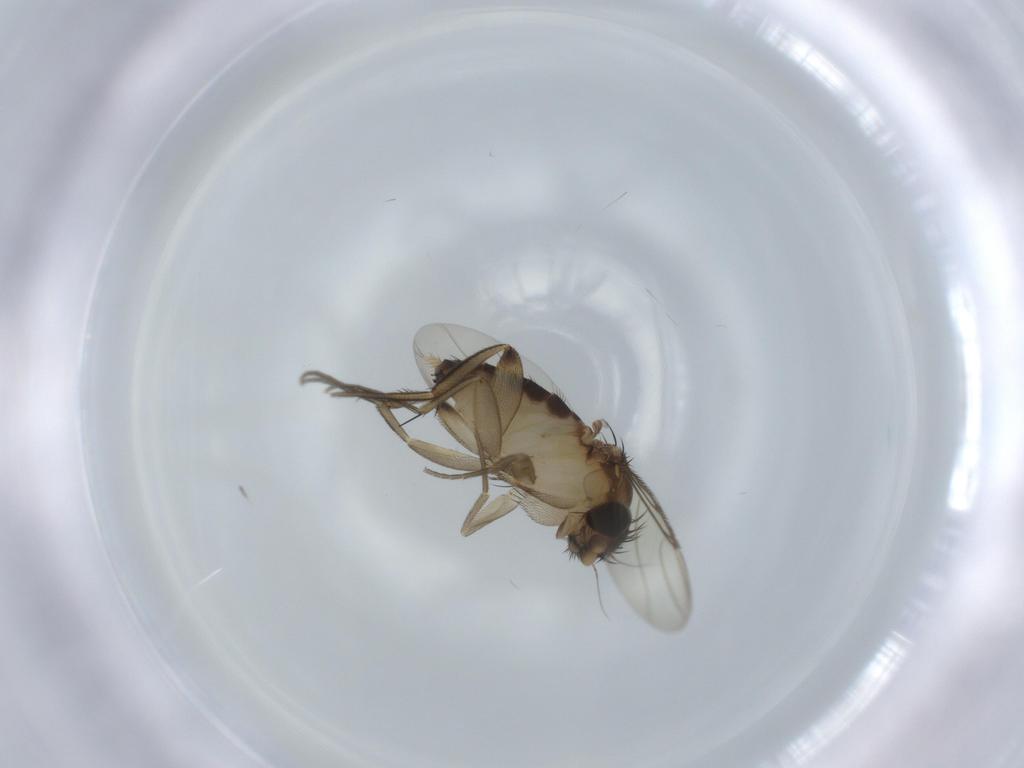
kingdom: Animalia
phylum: Arthropoda
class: Insecta
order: Diptera
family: Phoridae
